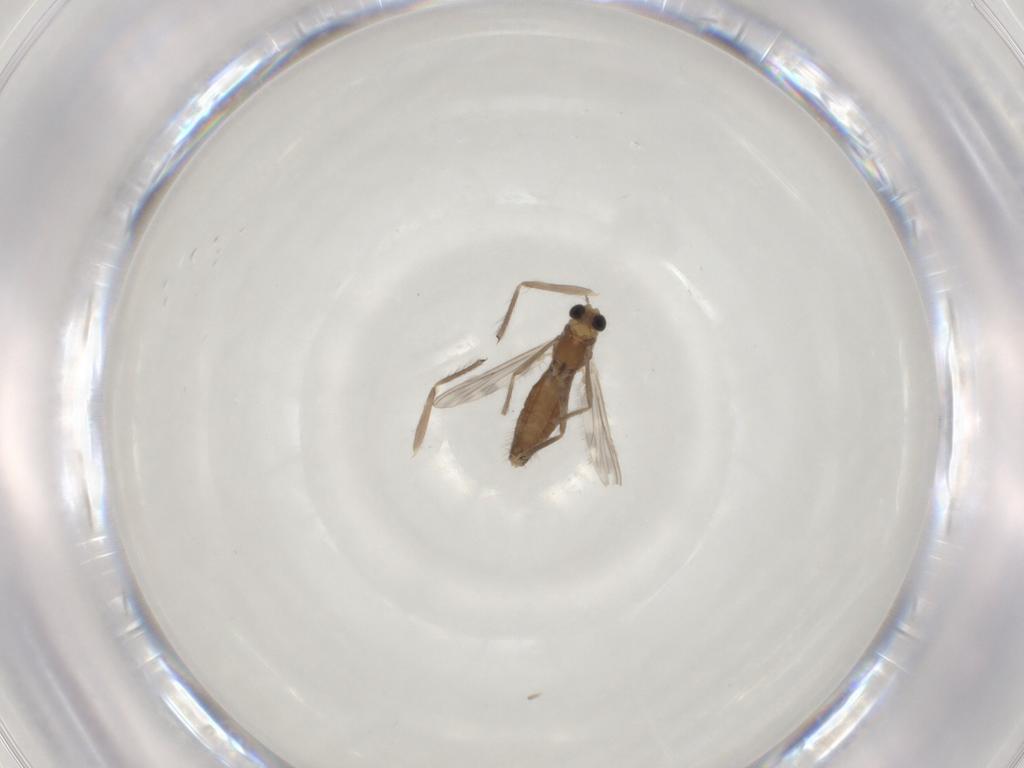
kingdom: Animalia
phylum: Arthropoda
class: Insecta
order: Diptera
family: Chironomidae
